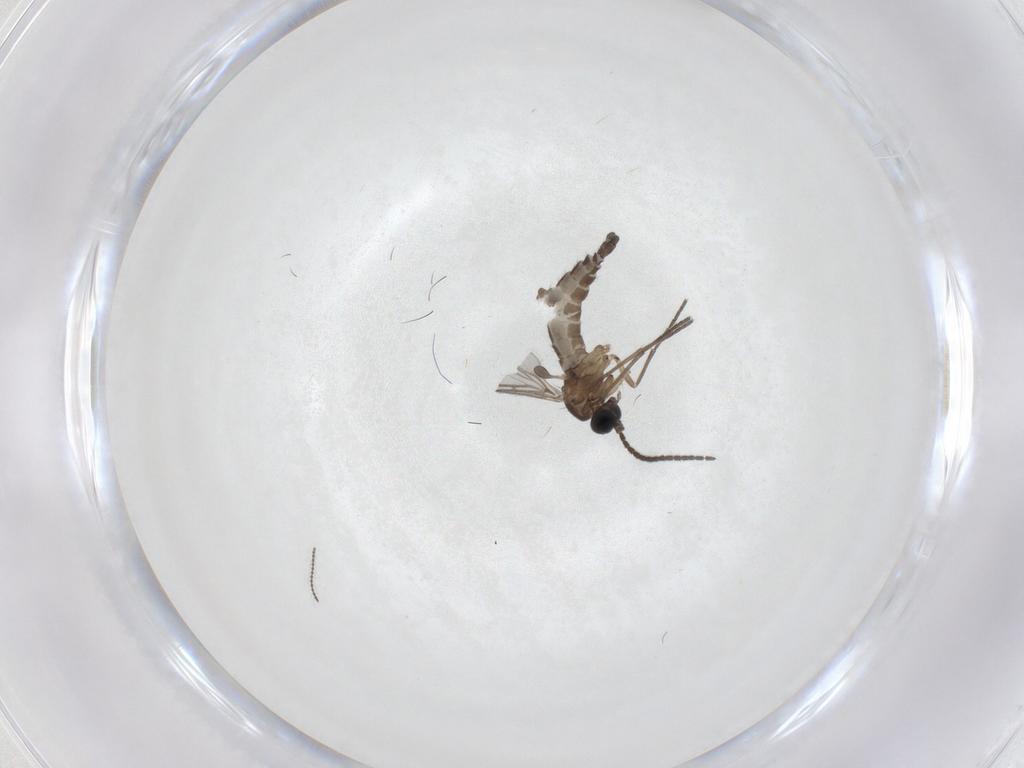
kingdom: Animalia
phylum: Arthropoda
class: Insecta
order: Diptera
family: Sciaridae
